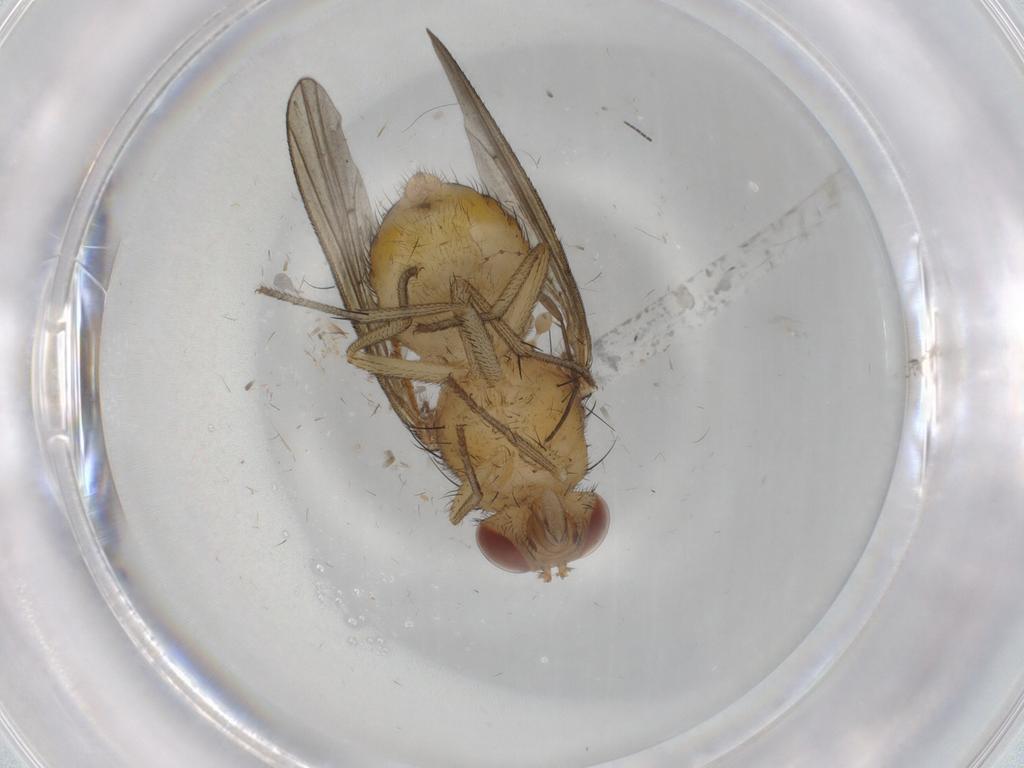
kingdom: Animalia
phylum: Arthropoda
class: Insecta
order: Diptera
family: Sciaridae
